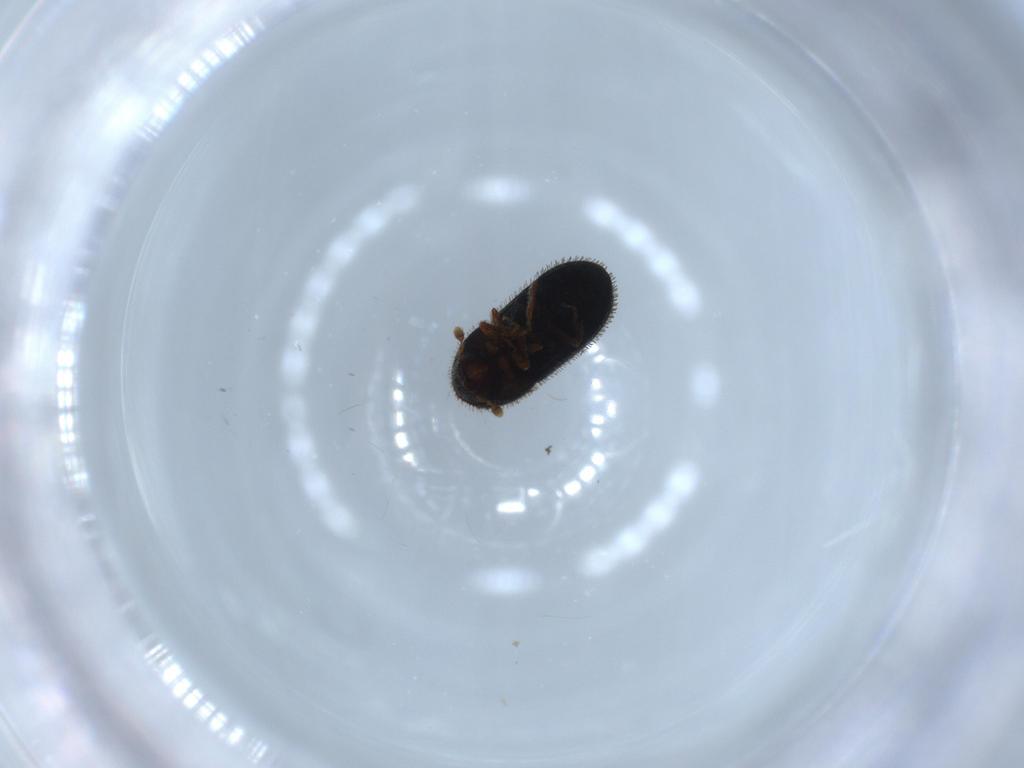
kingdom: Animalia
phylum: Arthropoda
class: Insecta
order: Coleoptera
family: Curculionidae
